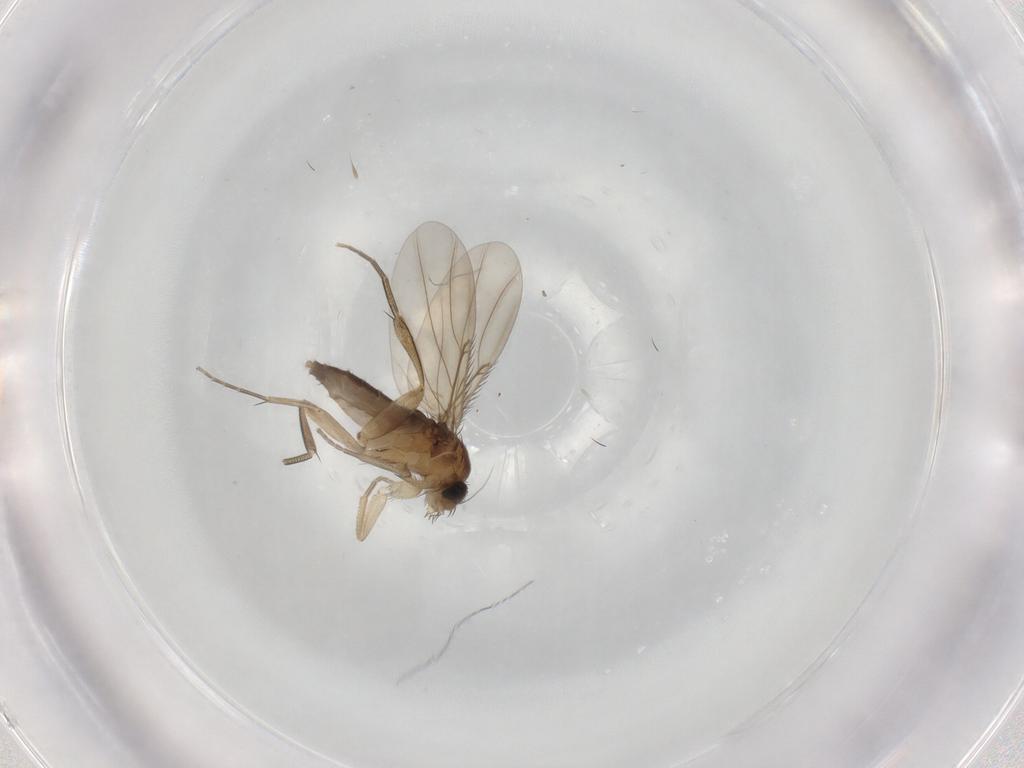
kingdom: Animalia
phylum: Arthropoda
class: Insecta
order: Diptera
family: Phoridae
